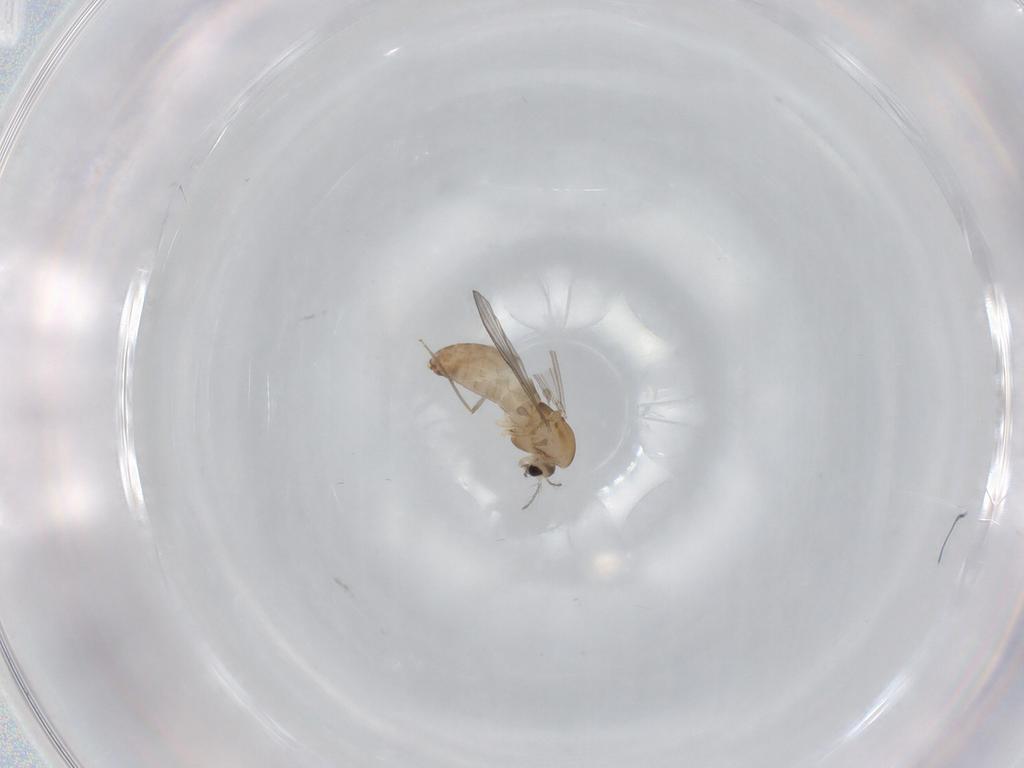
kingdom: Animalia
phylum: Arthropoda
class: Insecta
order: Diptera
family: Chironomidae
